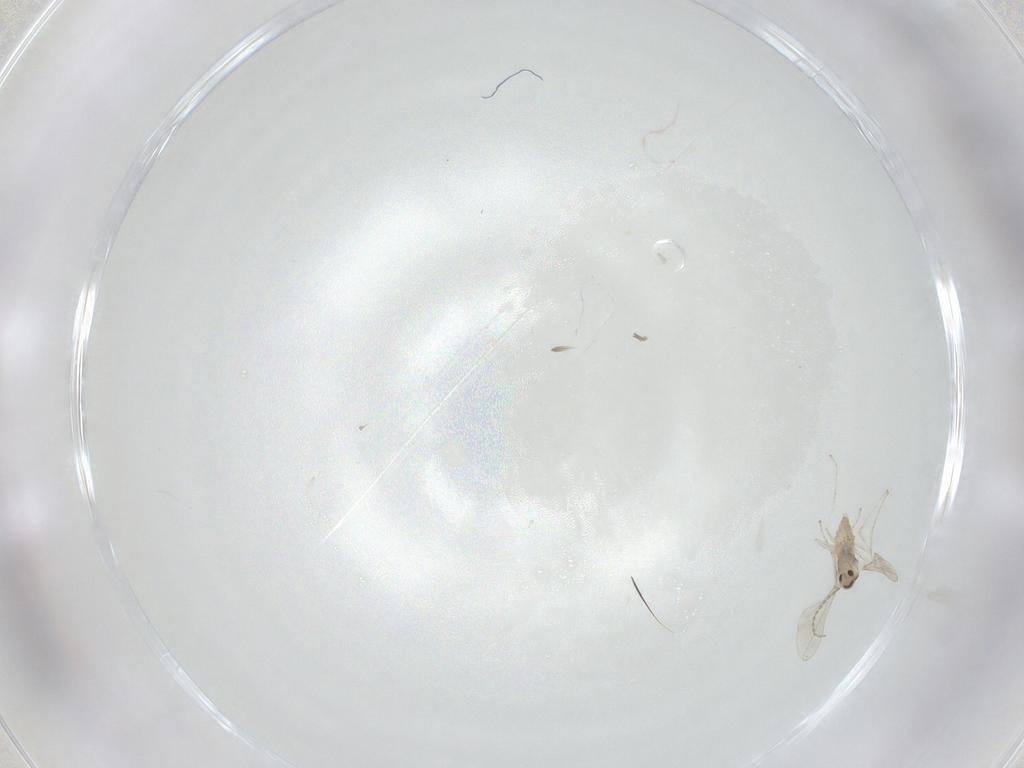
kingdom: Animalia
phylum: Arthropoda
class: Insecta
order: Diptera
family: Cecidomyiidae
